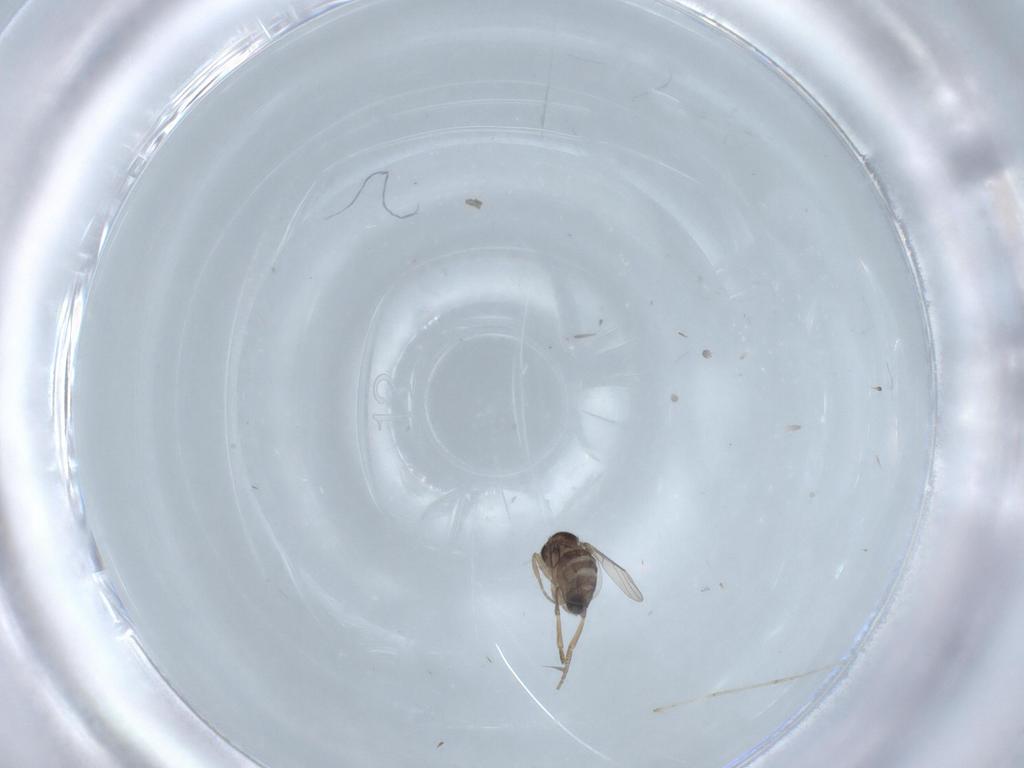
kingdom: Animalia
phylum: Arthropoda
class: Insecta
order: Diptera
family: Cecidomyiidae
